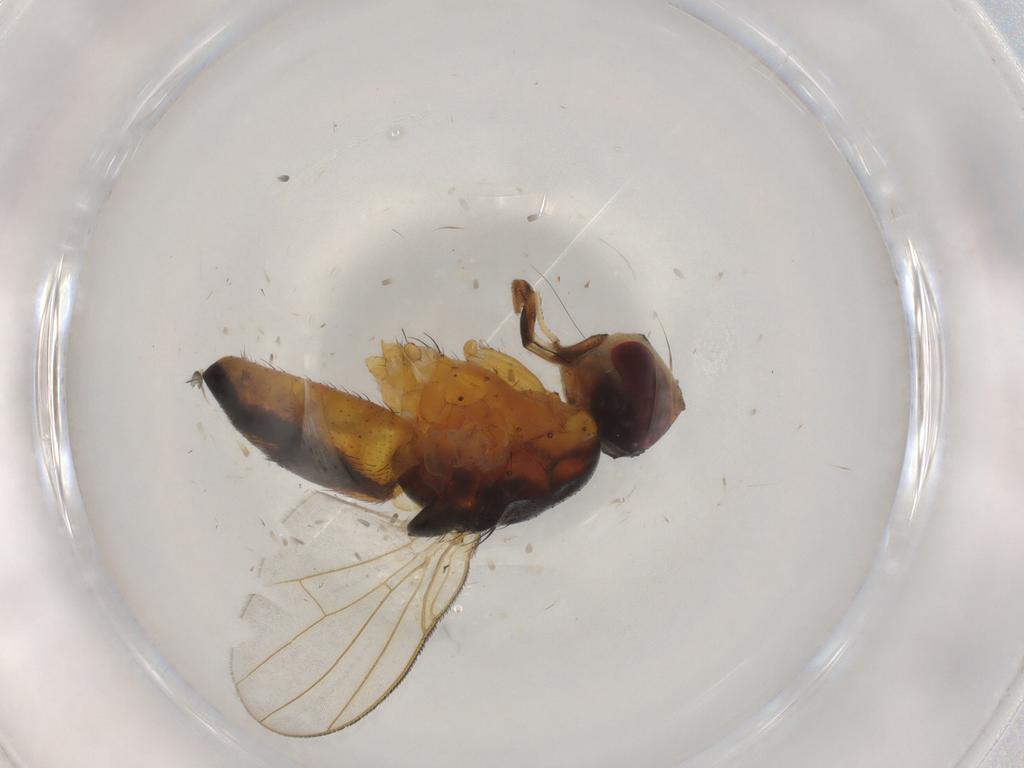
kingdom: Animalia
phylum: Arthropoda
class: Insecta
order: Diptera
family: Muscidae
